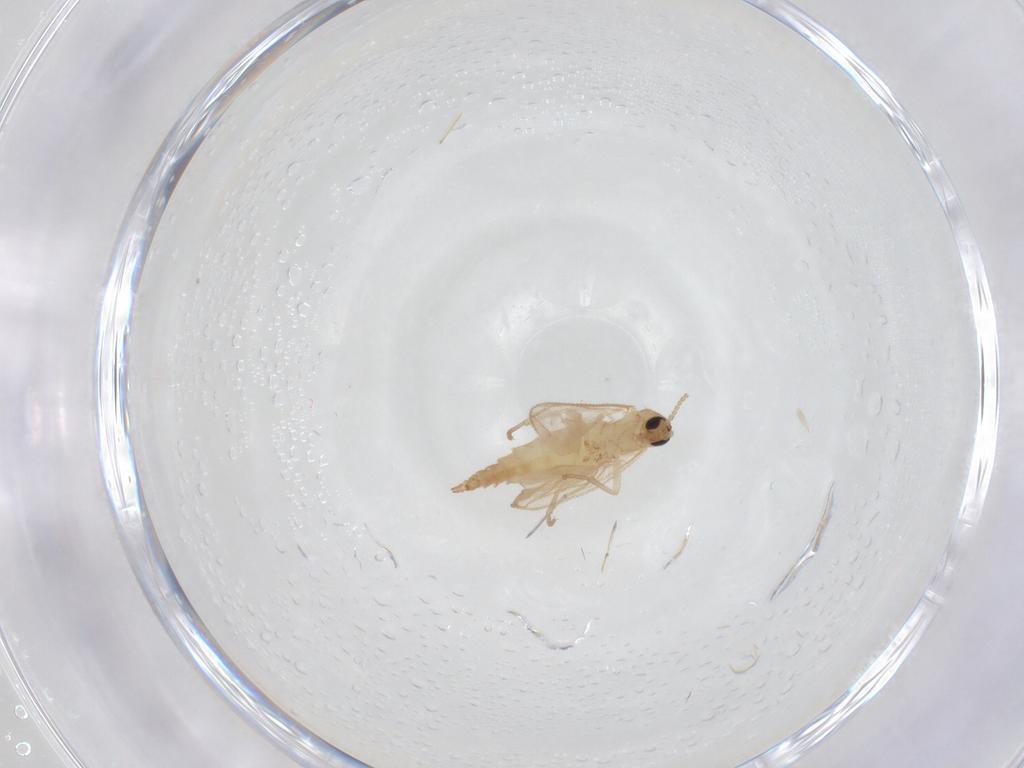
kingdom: Animalia
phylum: Arthropoda
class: Insecta
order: Diptera
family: Sciaridae
